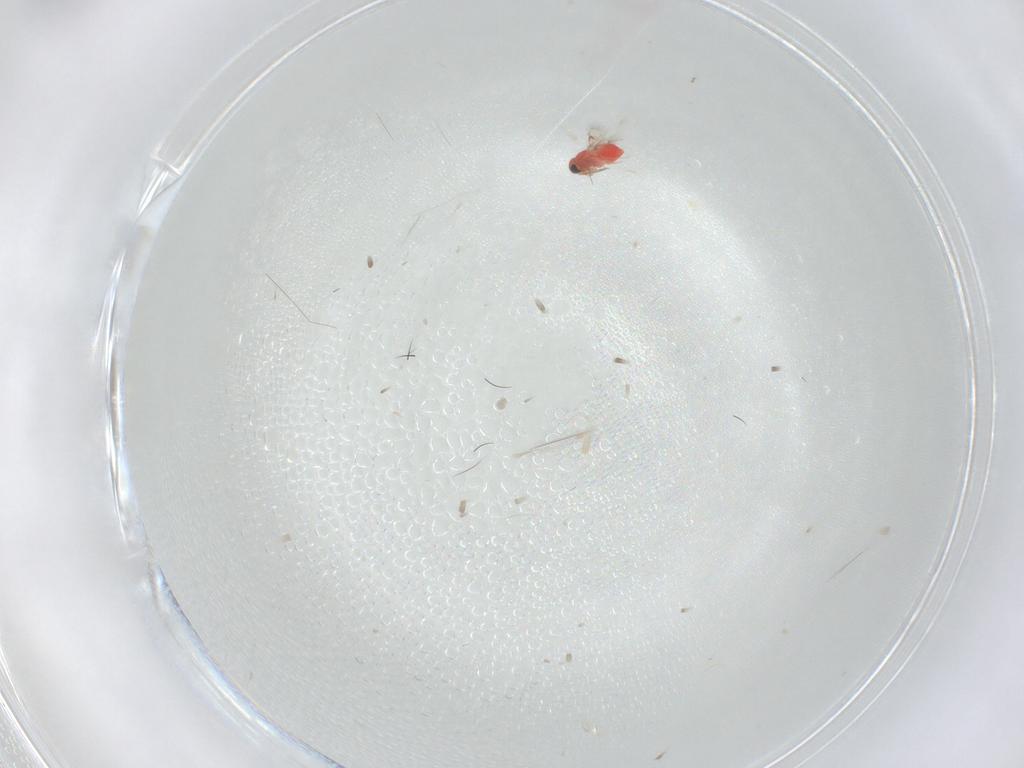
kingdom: Animalia
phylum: Arthropoda
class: Insecta
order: Hymenoptera
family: Trichogrammatidae
